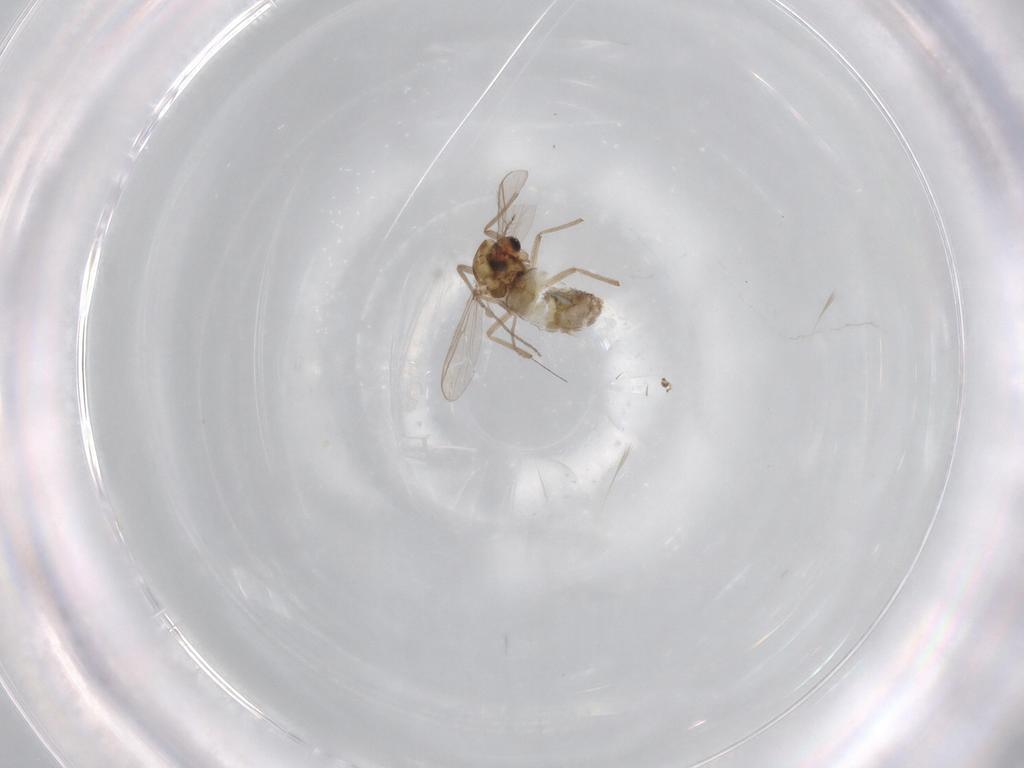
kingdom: Animalia
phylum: Arthropoda
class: Insecta
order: Diptera
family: Chironomidae
